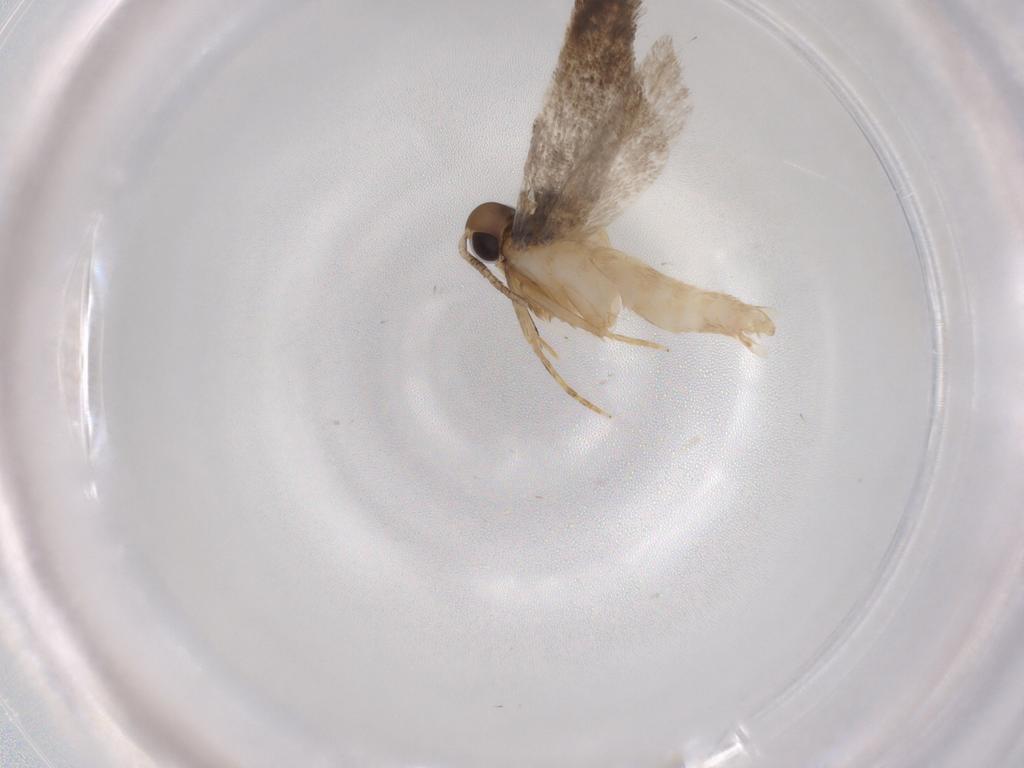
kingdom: Animalia
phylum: Arthropoda
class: Insecta
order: Lepidoptera
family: Autostichidae
